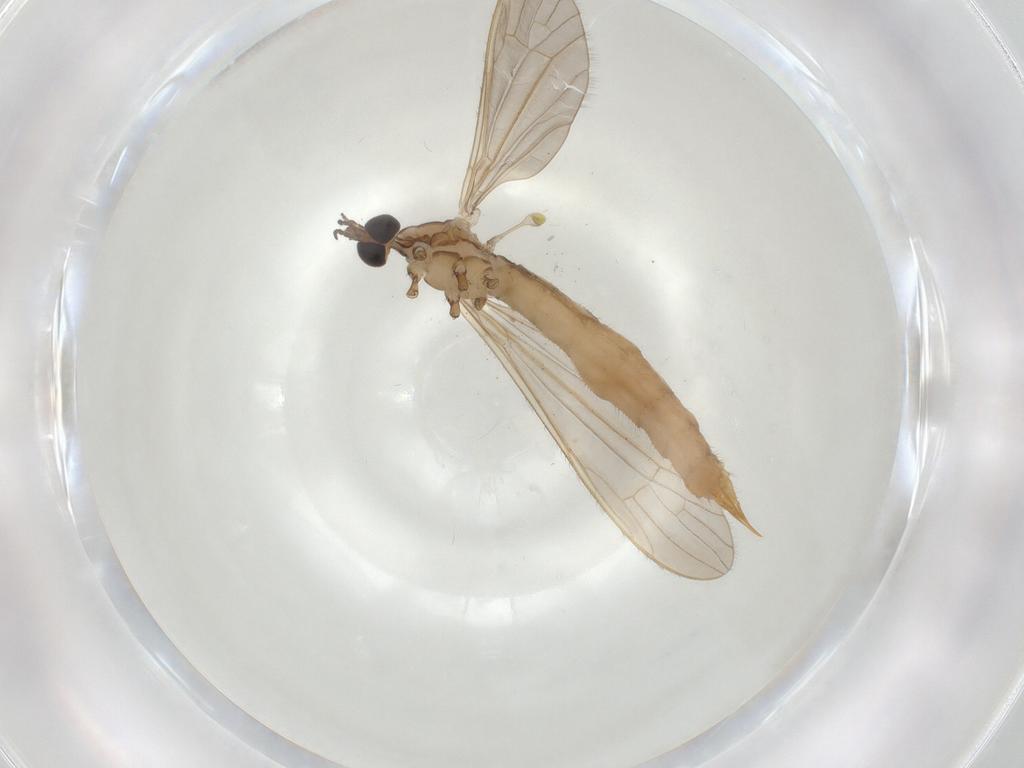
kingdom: Animalia
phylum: Arthropoda
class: Insecta
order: Diptera
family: Limoniidae
